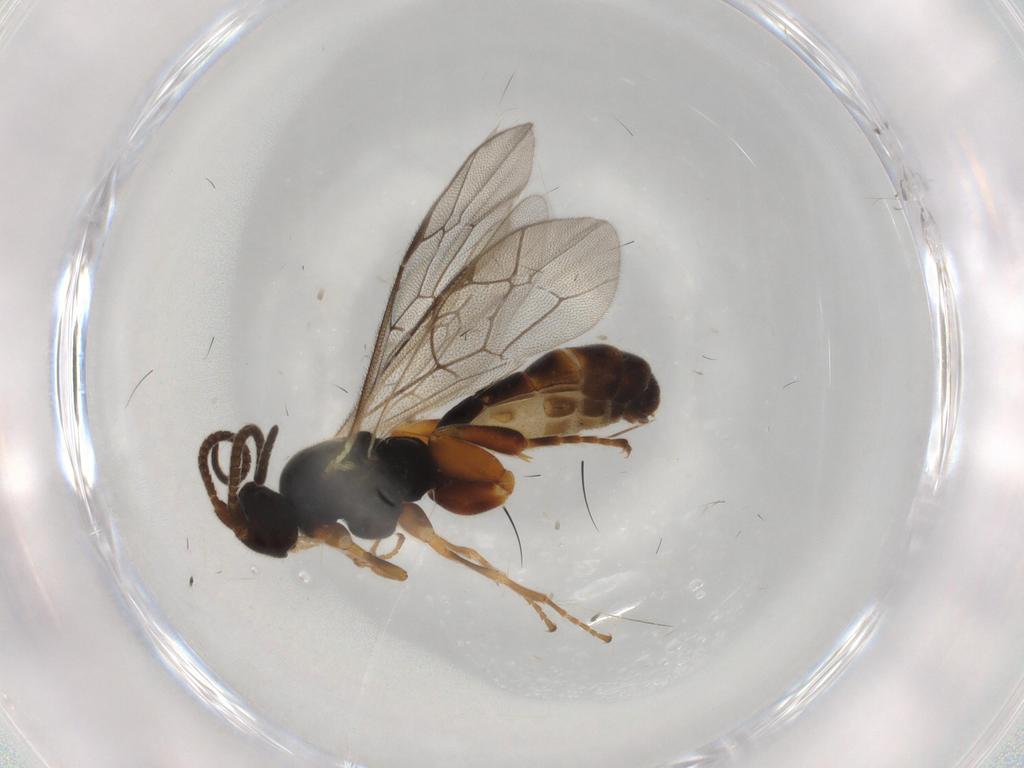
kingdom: Animalia
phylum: Arthropoda
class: Insecta
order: Hymenoptera
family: Ichneumonidae
